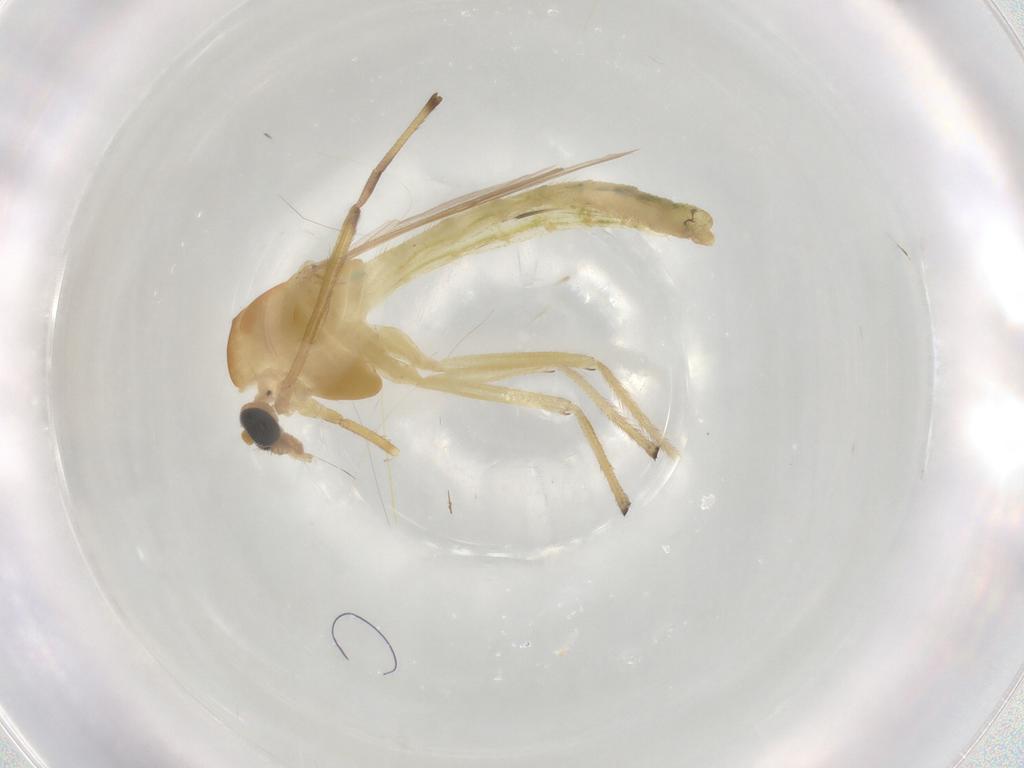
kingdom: Animalia
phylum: Arthropoda
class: Insecta
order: Diptera
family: Chironomidae
